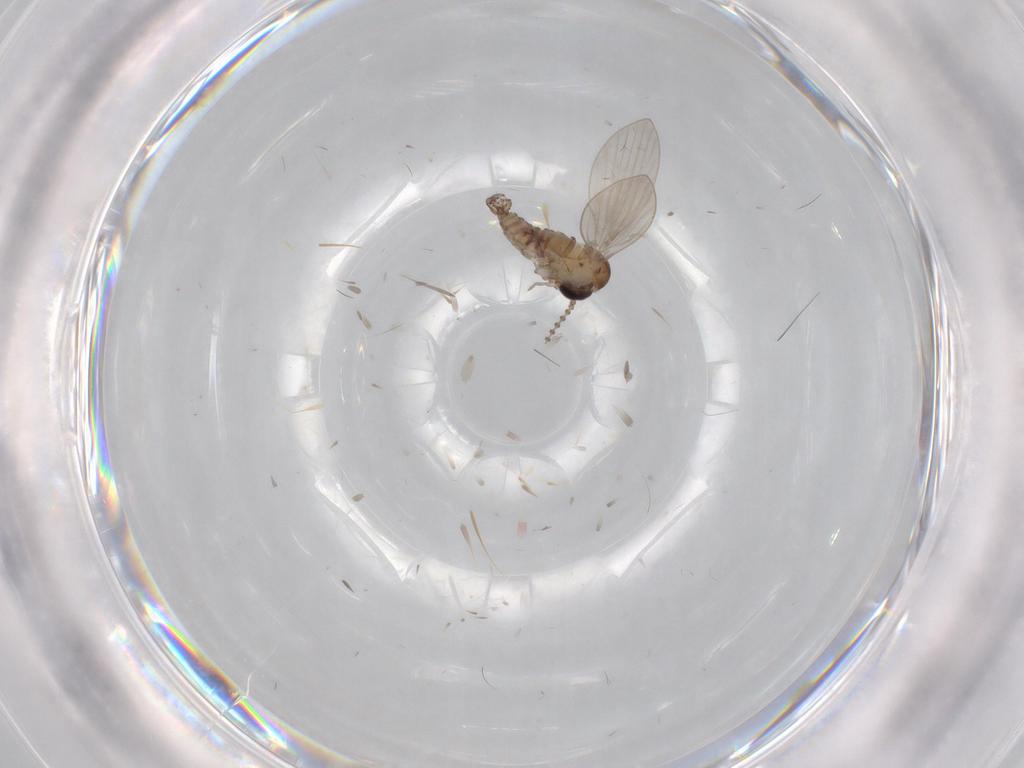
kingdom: Animalia
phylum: Arthropoda
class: Insecta
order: Diptera
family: Psychodidae
